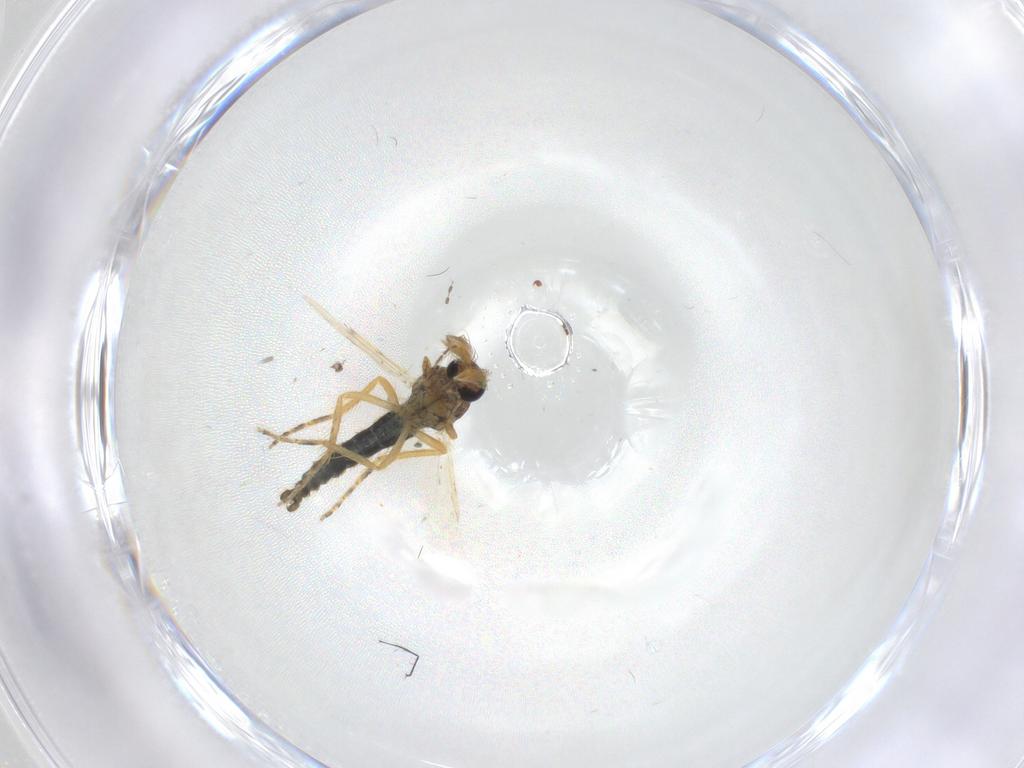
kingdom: Animalia
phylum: Arthropoda
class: Insecta
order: Diptera
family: Ceratopogonidae
